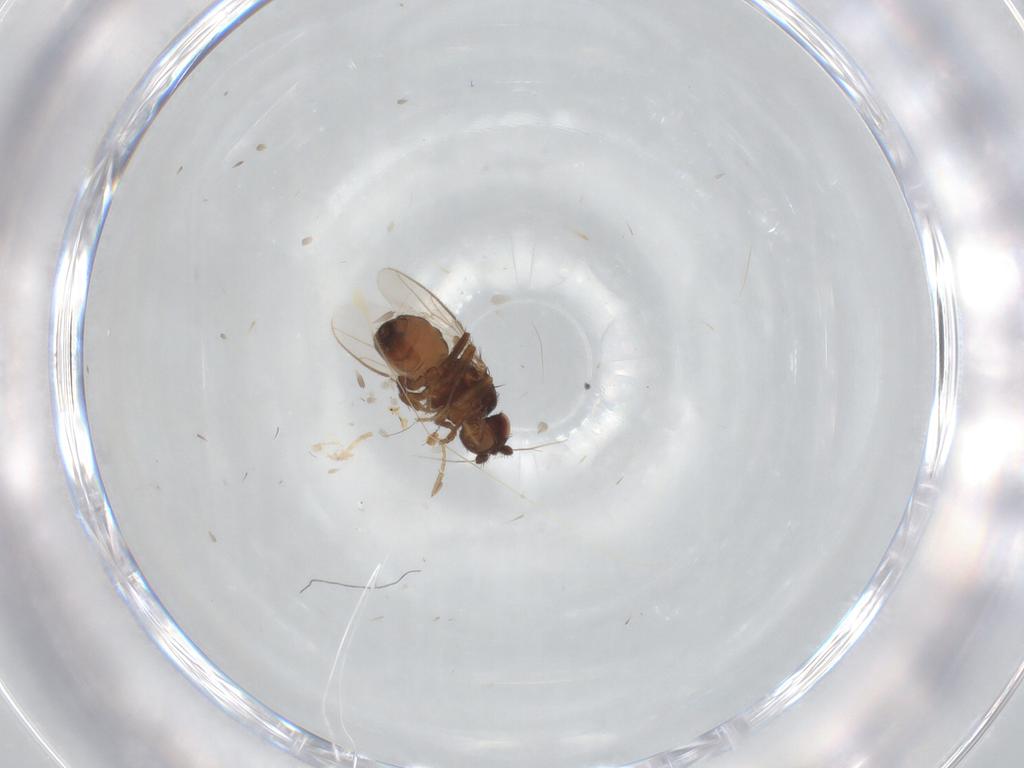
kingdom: Animalia
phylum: Arthropoda
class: Insecta
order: Diptera
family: Sphaeroceridae
